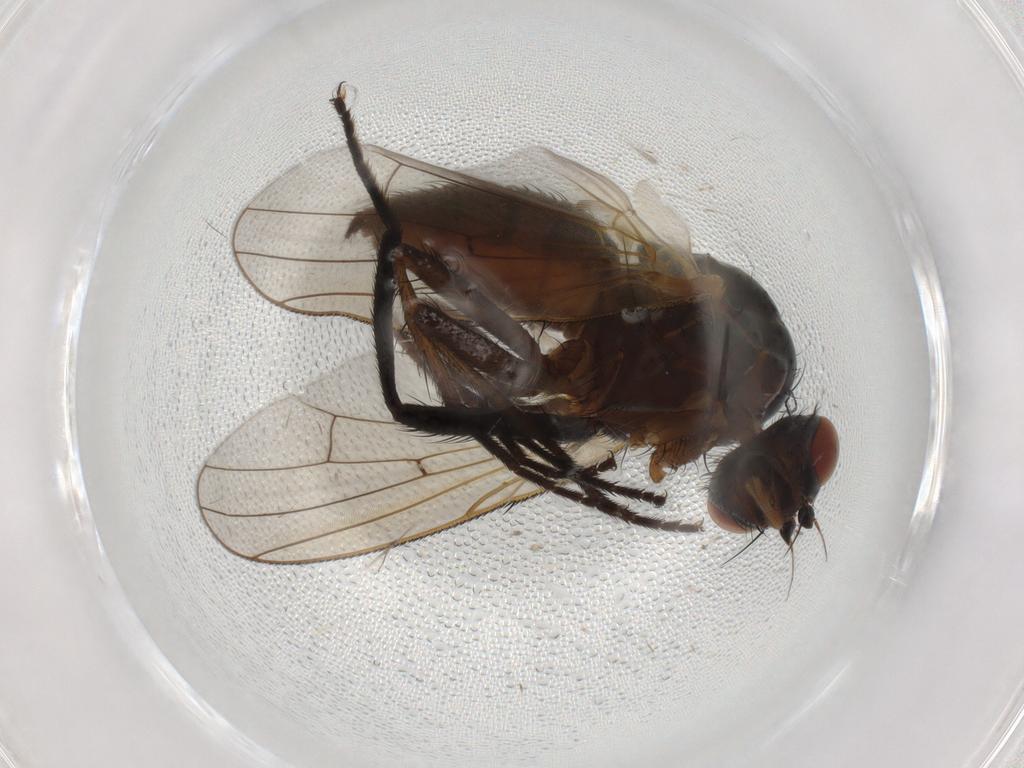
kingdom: Animalia
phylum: Arthropoda
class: Insecta
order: Diptera
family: Anthomyiidae
